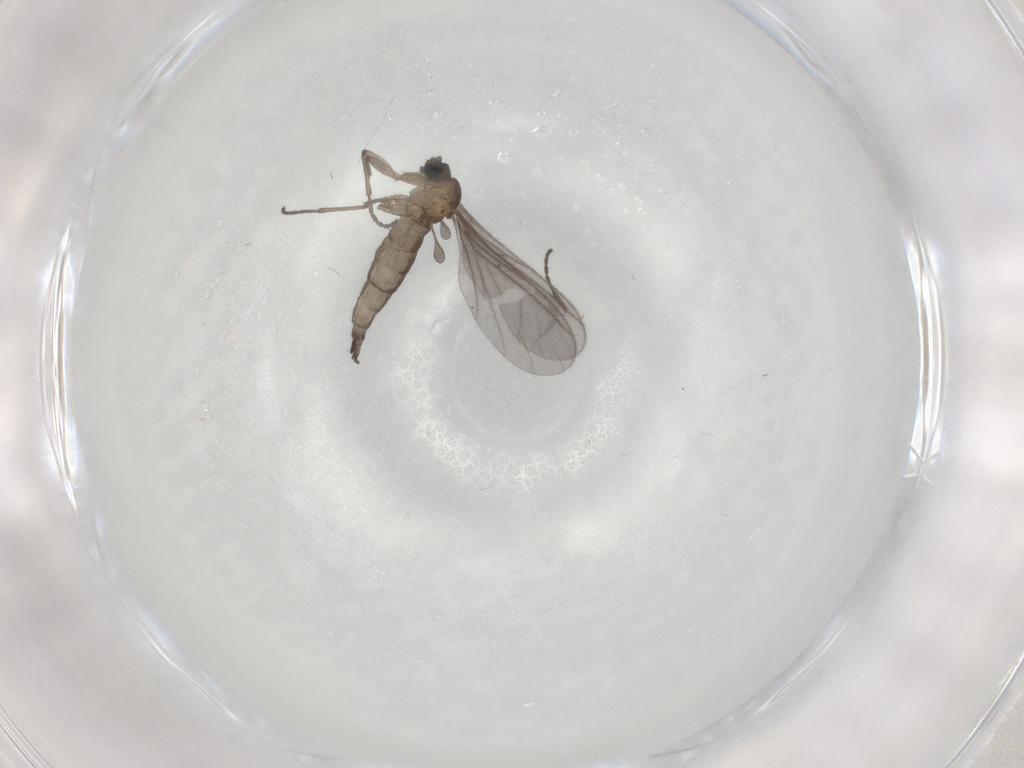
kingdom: Animalia
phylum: Arthropoda
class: Insecta
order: Diptera
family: Sciaridae
